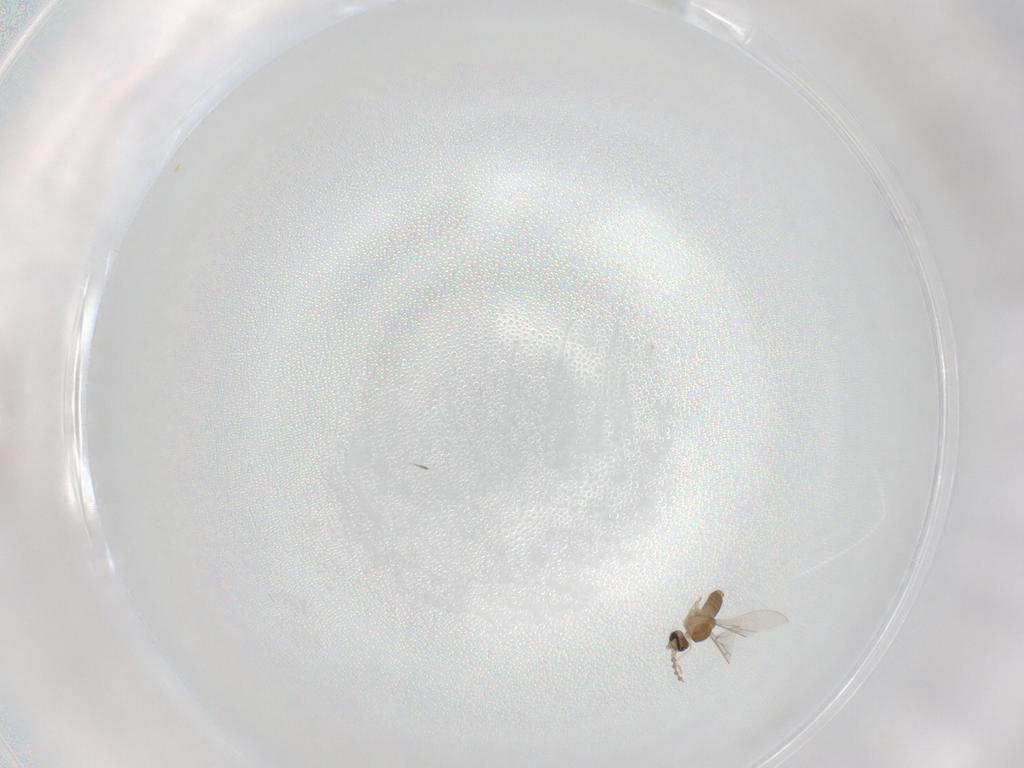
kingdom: Animalia
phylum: Arthropoda
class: Insecta
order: Diptera
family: Cecidomyiidae
